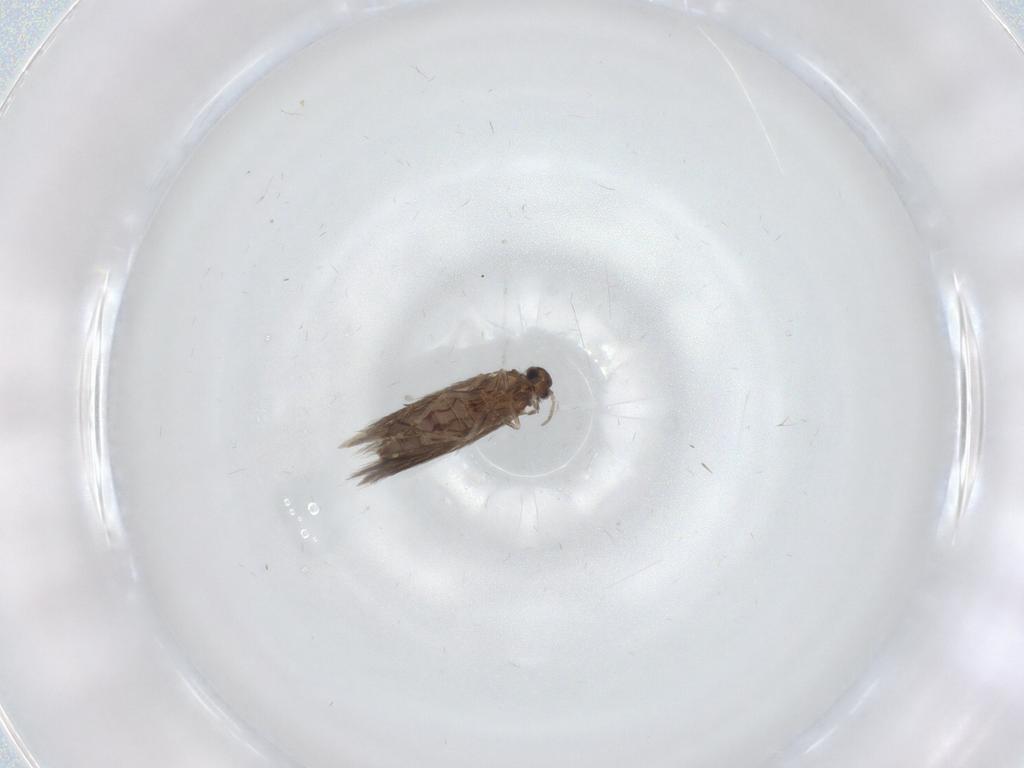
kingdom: Animalia
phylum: Arthropoda
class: Insecta
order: Trichoptera
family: Hydroptilidae
